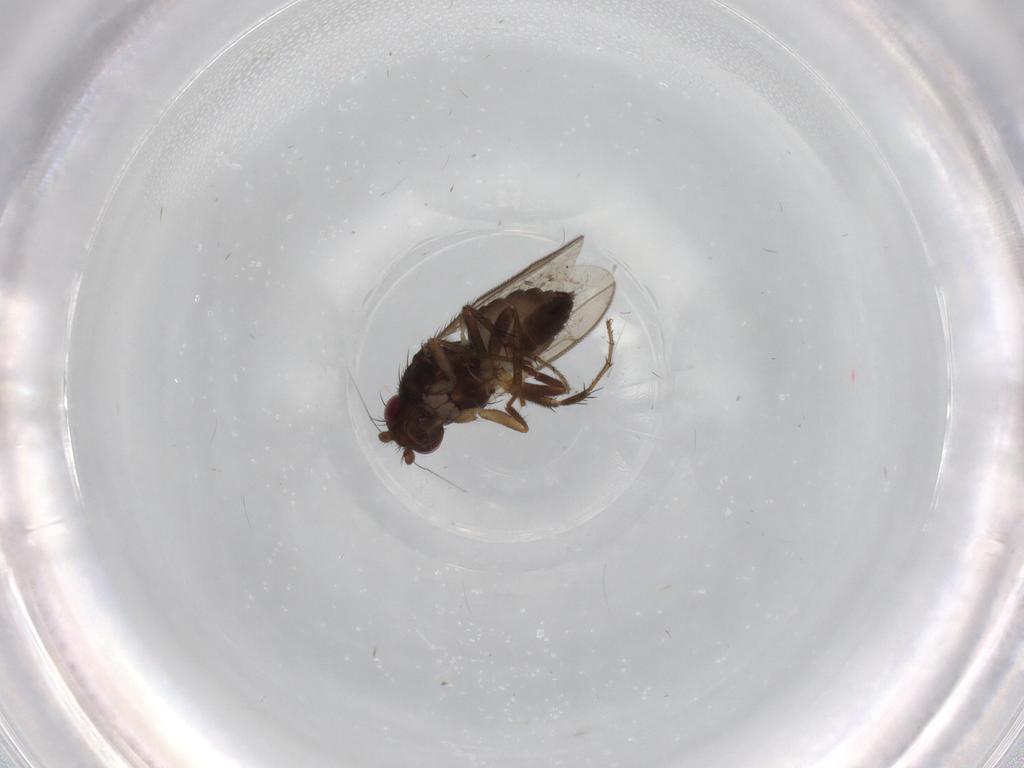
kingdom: Animalia
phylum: Arthropoda
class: Insecta
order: Diptera
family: Sphaeroceridae
